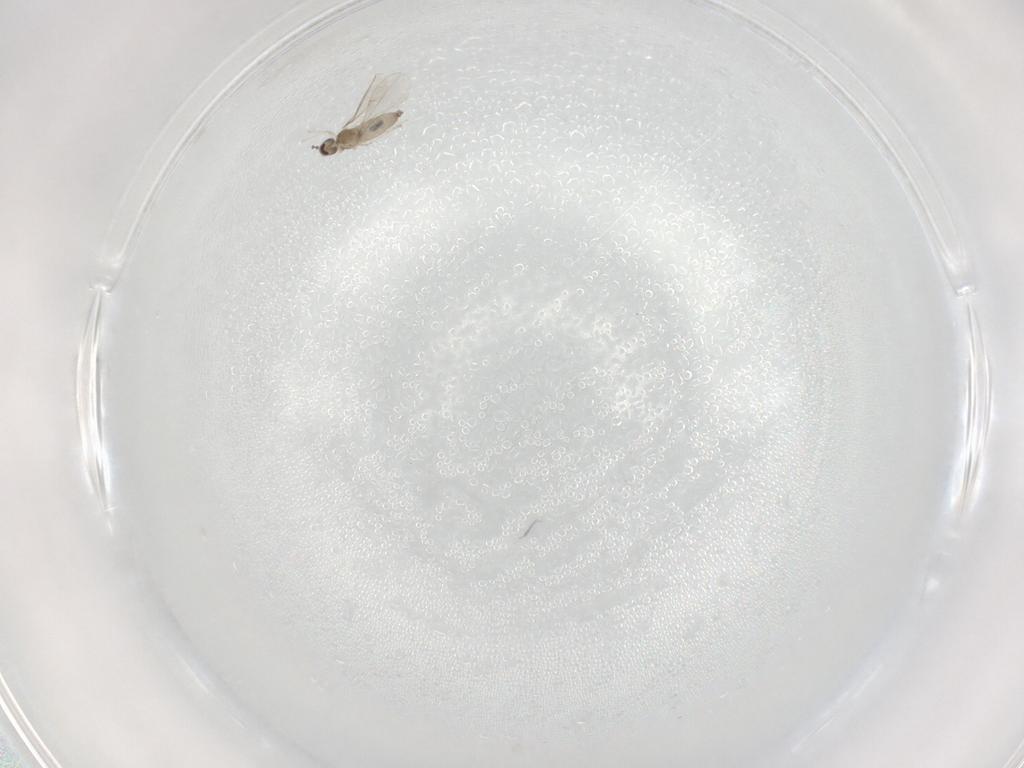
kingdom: Animalia
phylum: Arthropoda
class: Insecta
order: Diptera
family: Cecidomyiidae
